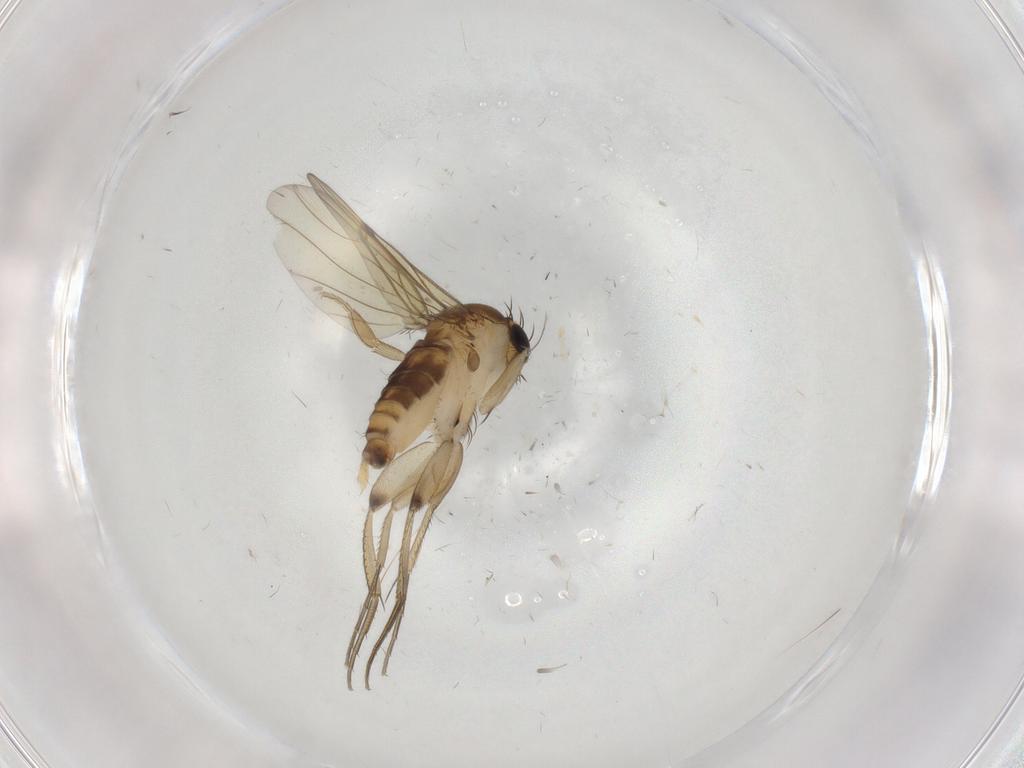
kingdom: Animalia
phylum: Arthropoda
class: Insecta
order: Diptera
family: Phoridae
